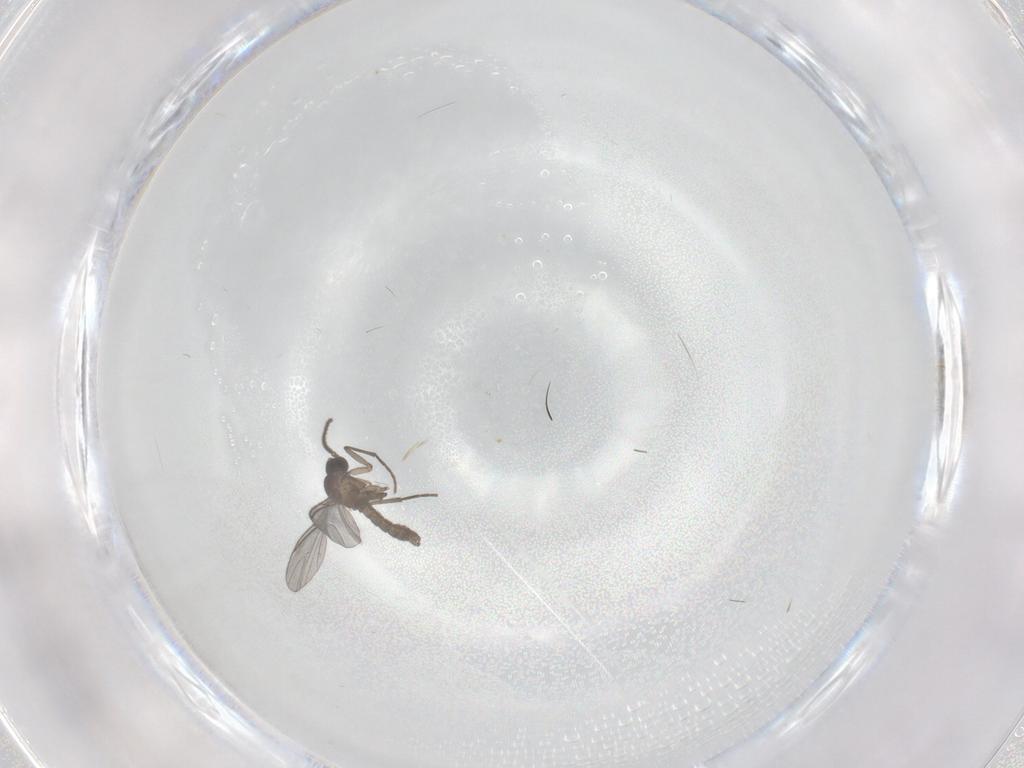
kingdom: Animalia
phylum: Arthropoda
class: Insecta
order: Diptera
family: Sciaridae
